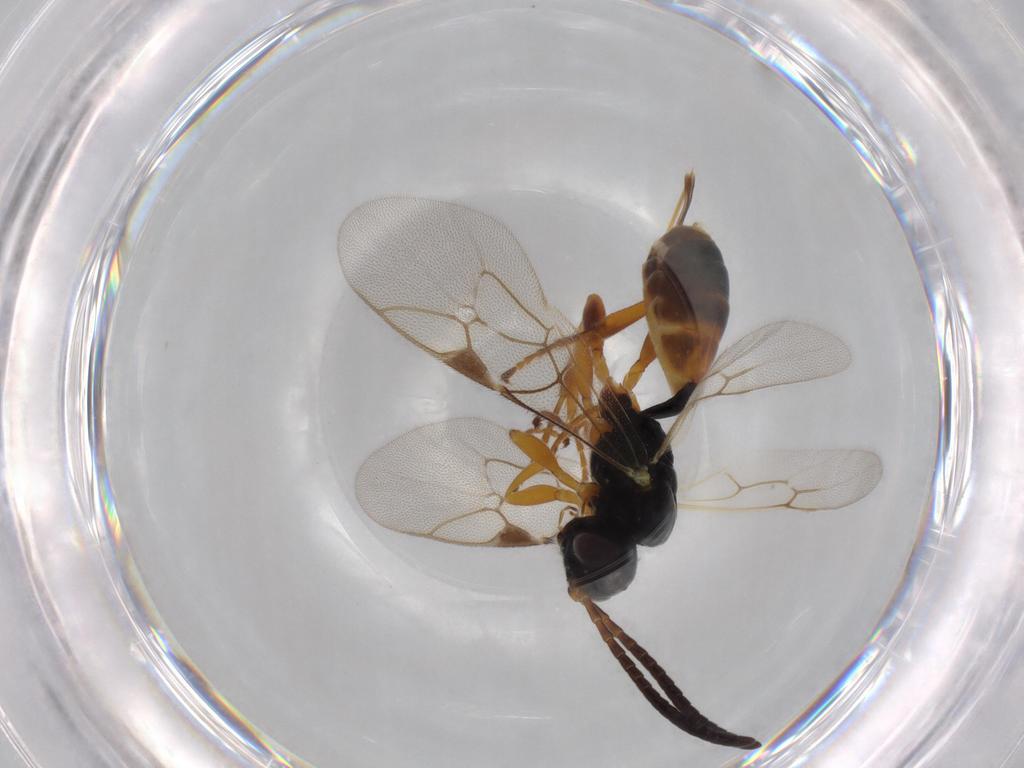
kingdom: Animalia
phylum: Arthropoda
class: Insecta
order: Hymenoptera
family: Ichneumonidae
